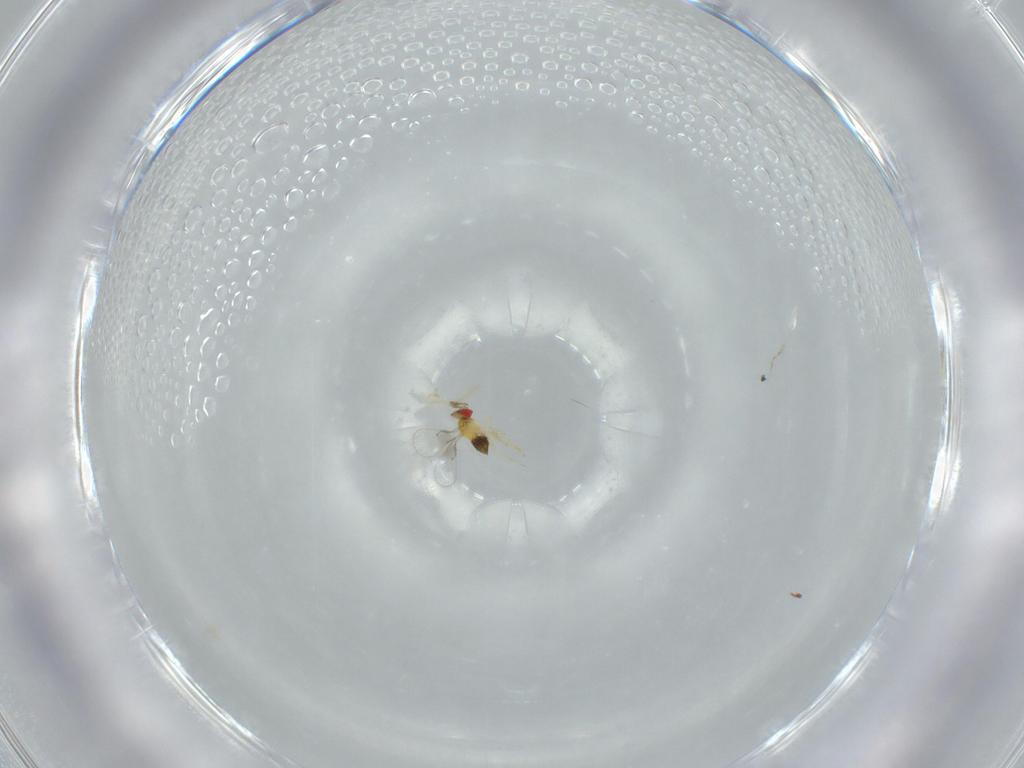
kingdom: Animalia
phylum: Arthropoda
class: Insecta
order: Hymenoptera
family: Trichogrammatidae
